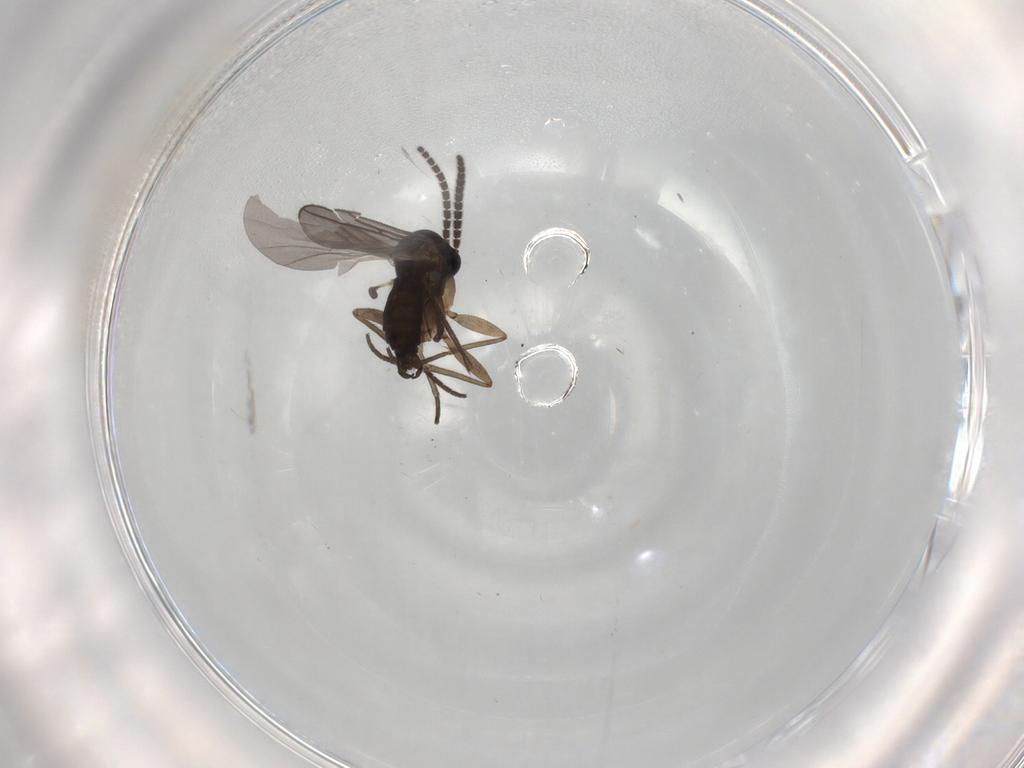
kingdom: Animalia
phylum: Arthropoda
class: Insecta
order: Diptera
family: Sciaridae
